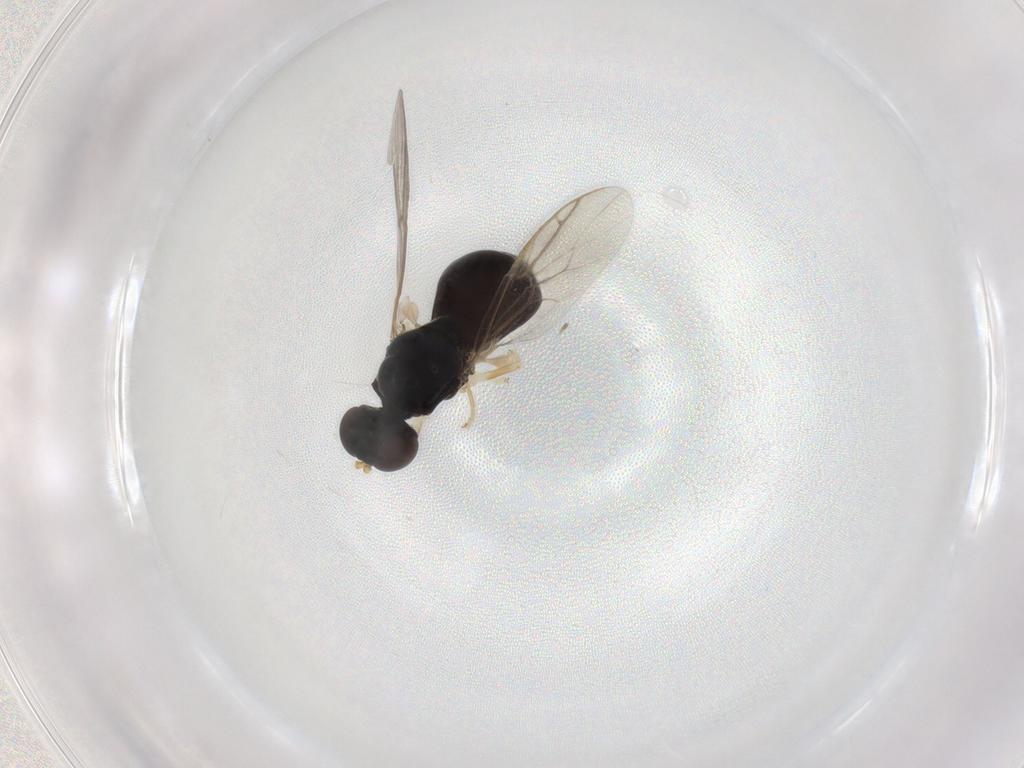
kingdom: Animalia
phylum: Arthropoda
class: Insecta
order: Diptera
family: Stratiomyidae
